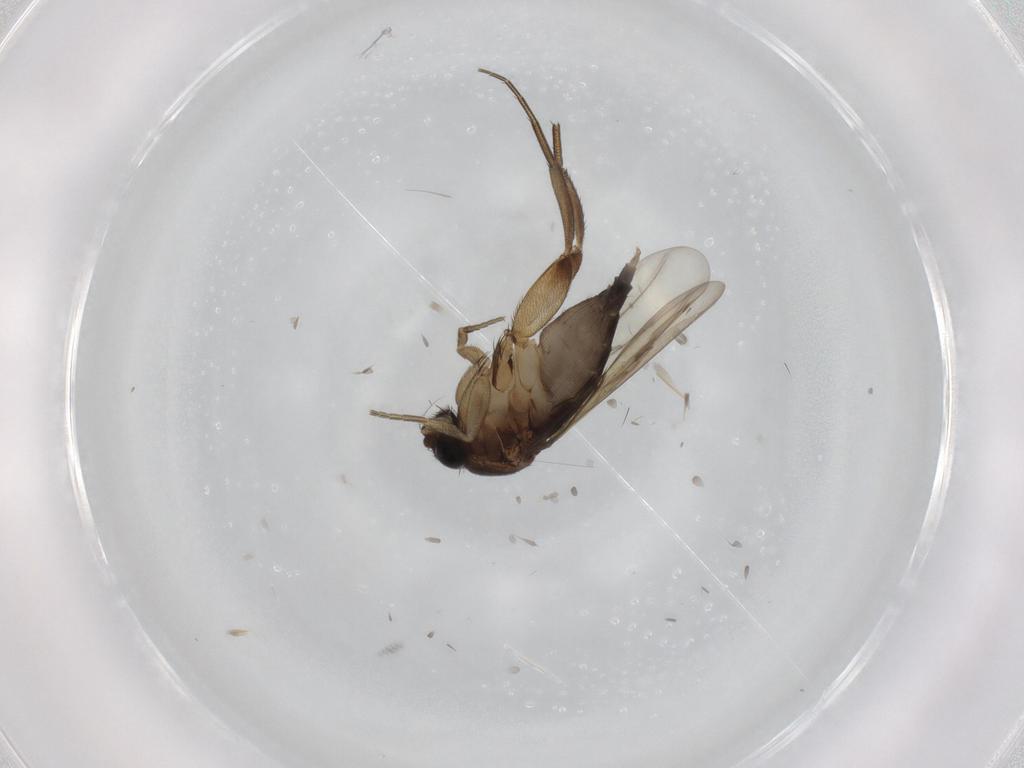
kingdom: Animalia
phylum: Arthropoda
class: Insecta
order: Diptera
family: Phoridae
